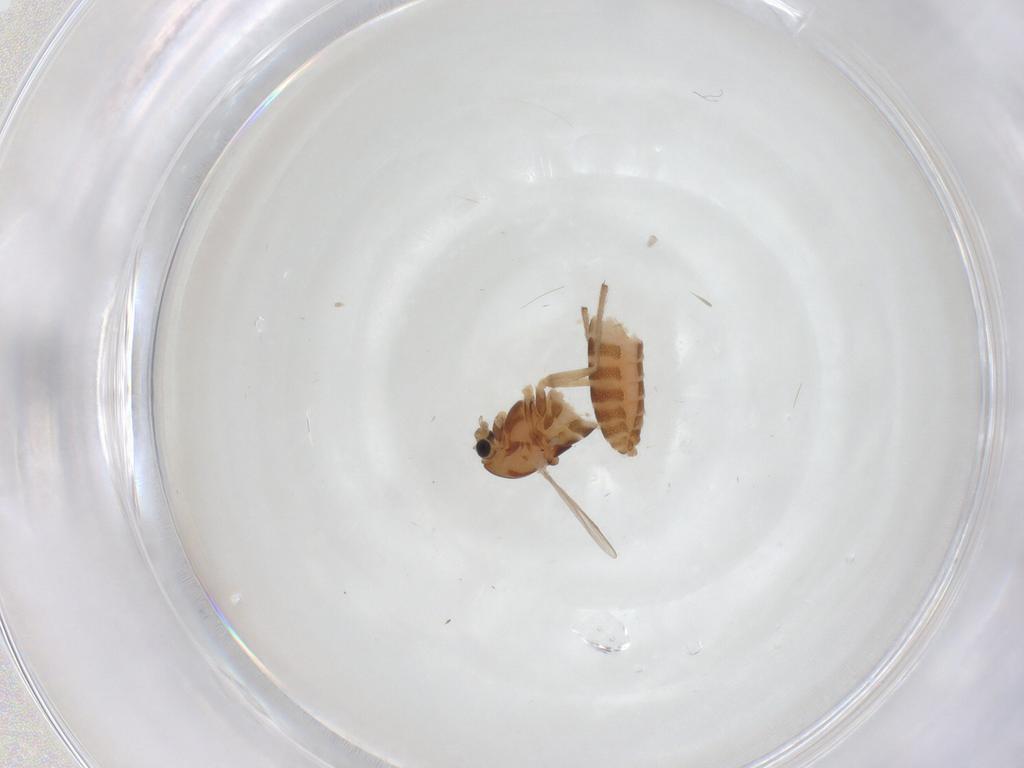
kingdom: Animalia
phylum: Arthropoda
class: Insecta
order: Diptera
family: Chironomidae
